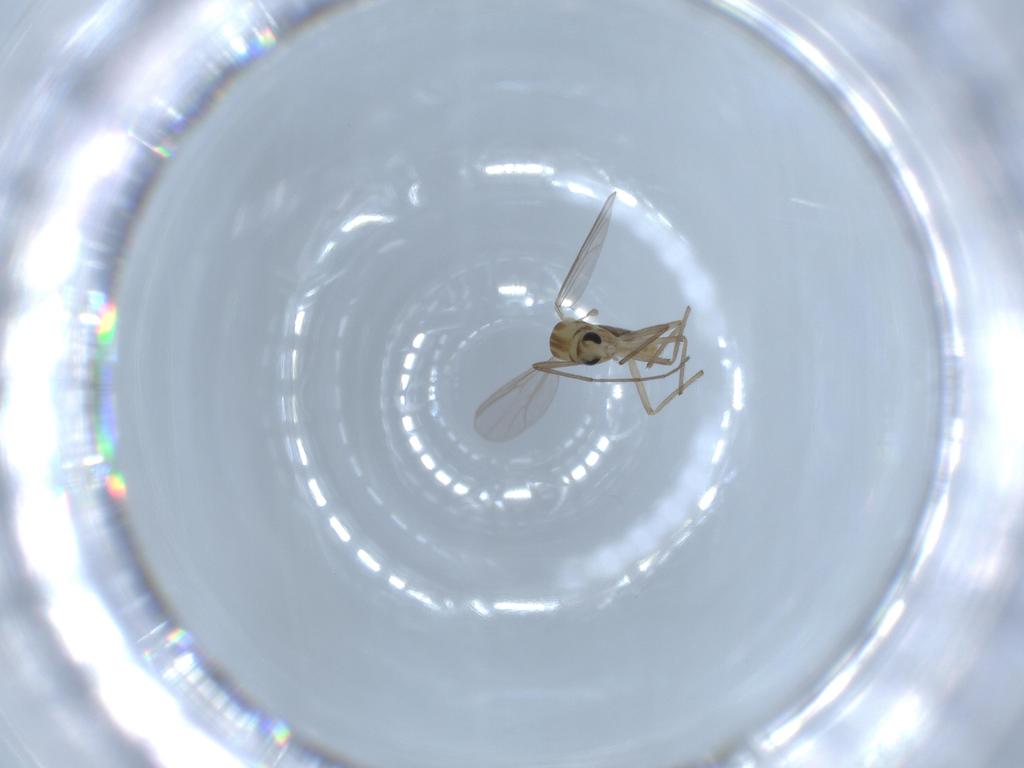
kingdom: Animalia
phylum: Arthropoda
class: Insecta
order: Diptera
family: Chironomidae
